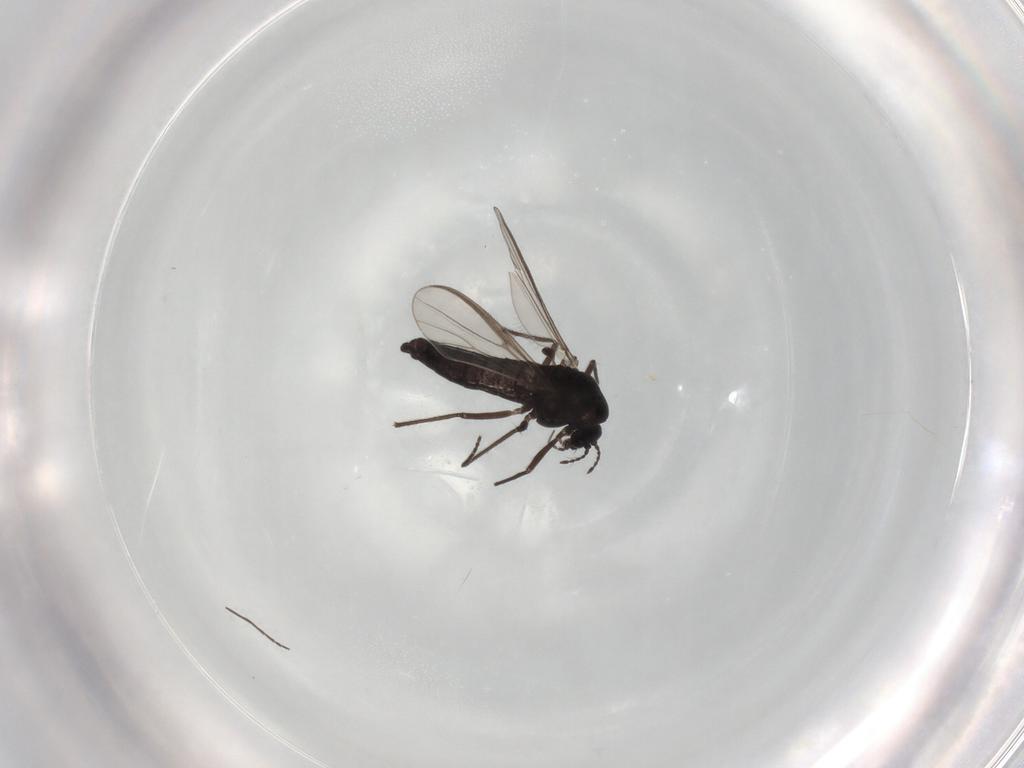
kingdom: Animalia
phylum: Arthropoda
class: Insecta
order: Diptera
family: Chironomidae
